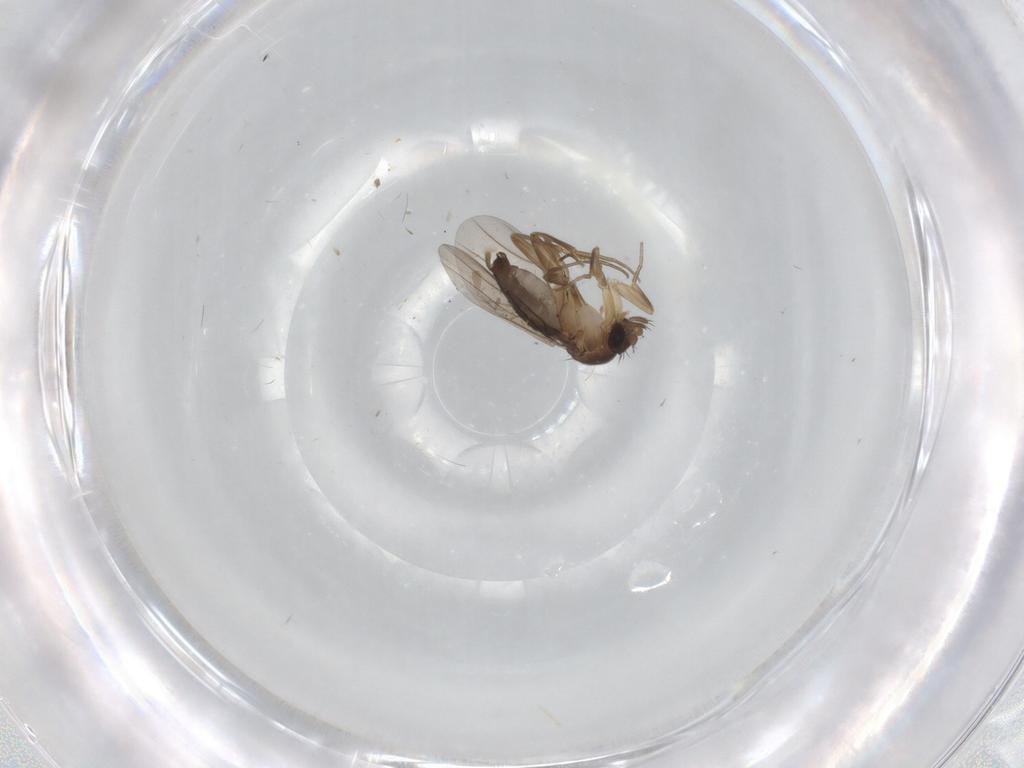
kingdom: Animalia
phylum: Arthropoda
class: Insecta
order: Diptera
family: Phoridae
